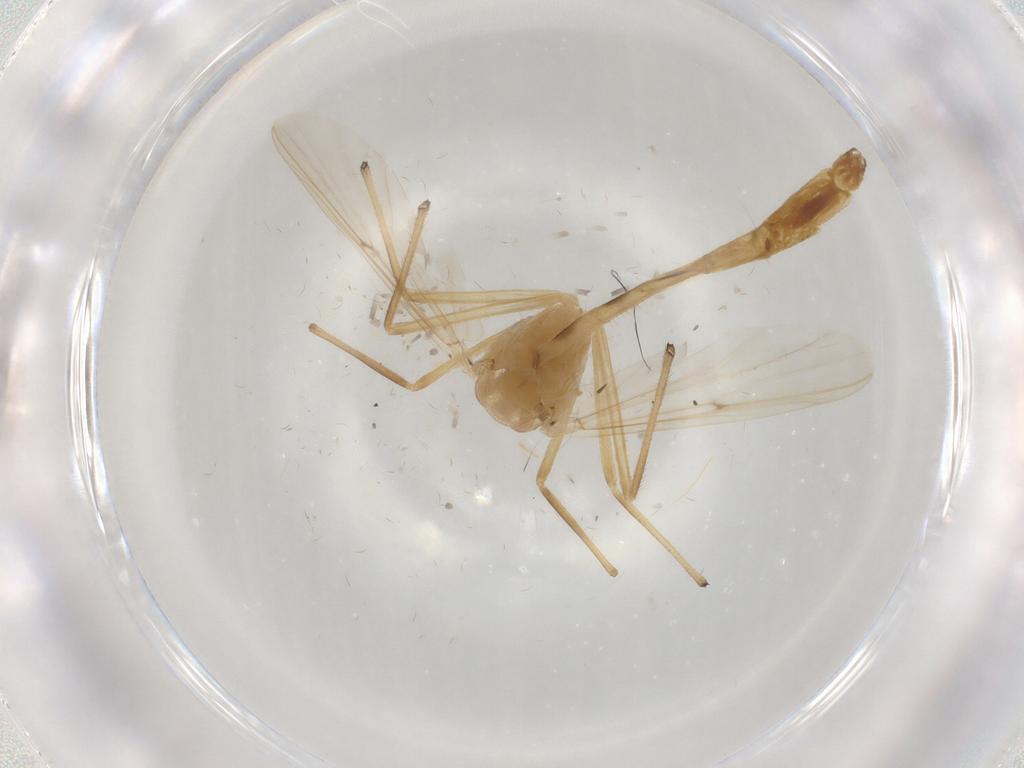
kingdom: Animalia
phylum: Arthropoda
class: Insecta
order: Diptera
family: Chironomidae
